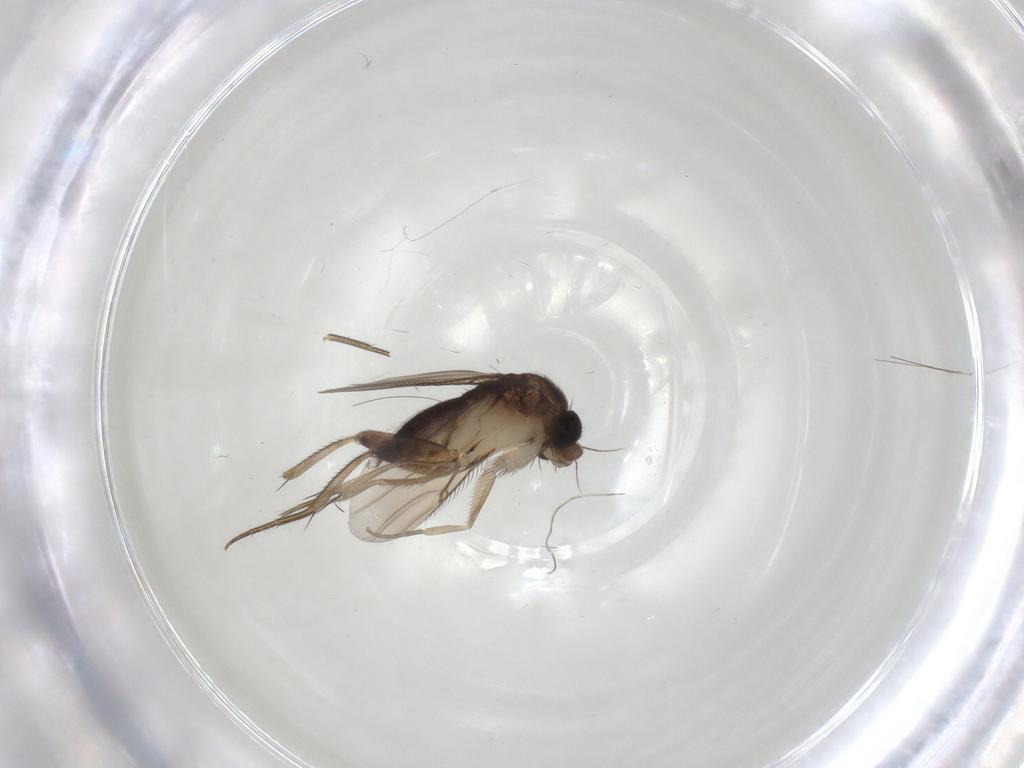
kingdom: Animalia
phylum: Arthropoda
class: Insecta
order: Diptera
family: Phoridae
